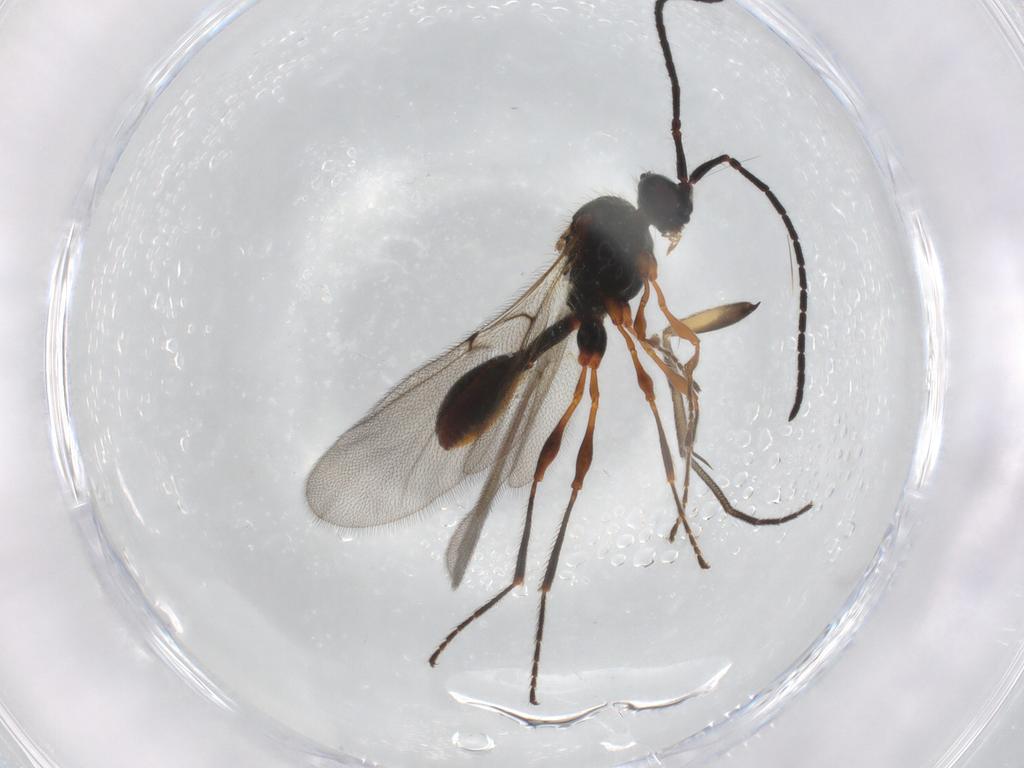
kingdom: Animalia
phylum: Arthropoda
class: Insecta
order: Hymenoptera
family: Diapriidae
